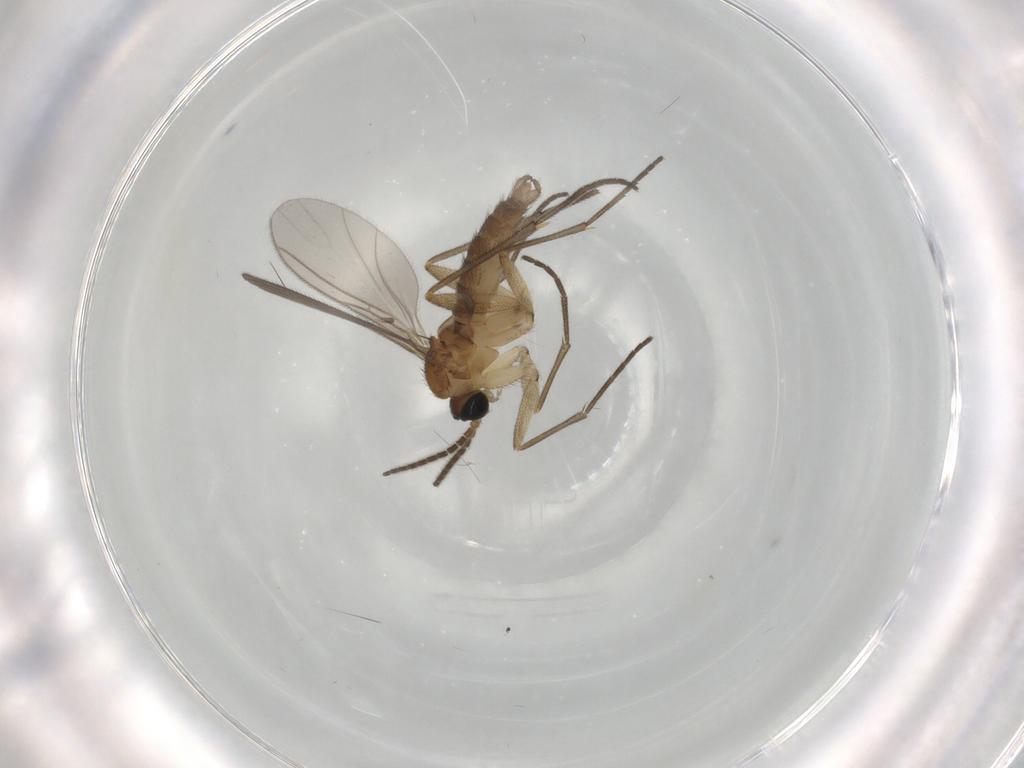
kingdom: Animalia
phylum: Arthropoda
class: Insecta
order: Diptera
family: Sciaridae
